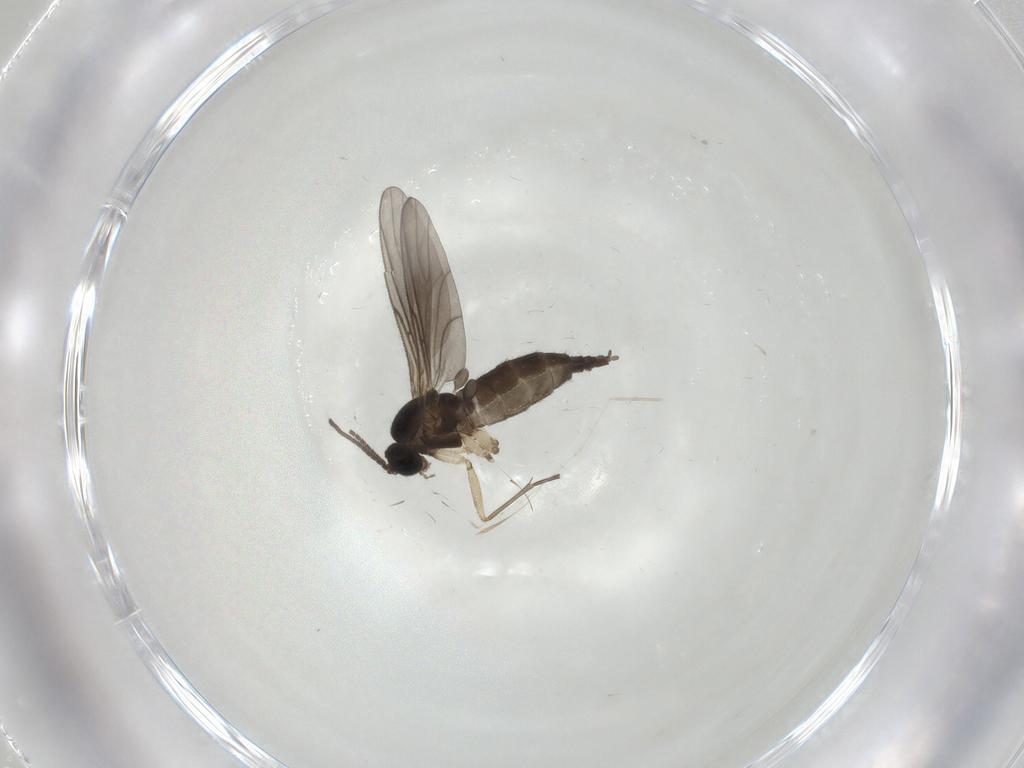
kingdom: Animalia
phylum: Arthropoda
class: Insecta
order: Diptera
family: Sciaridae
